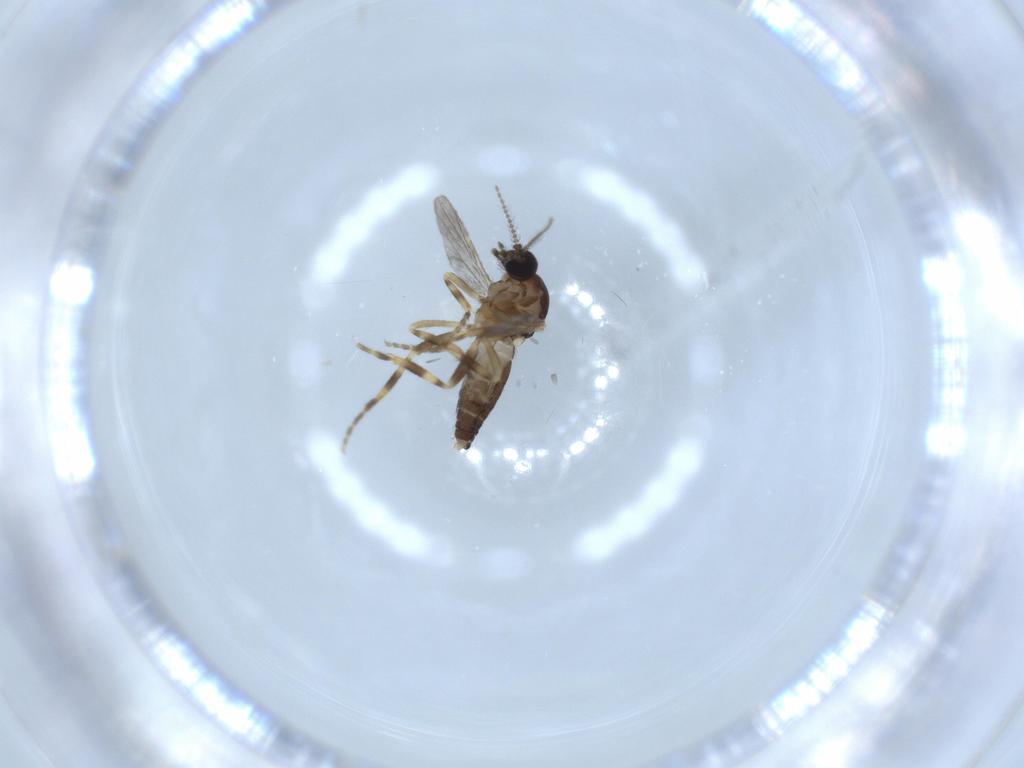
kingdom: Animalia
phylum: Arthropoda
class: Insecta
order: Diptera
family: Ceratopogonidae
